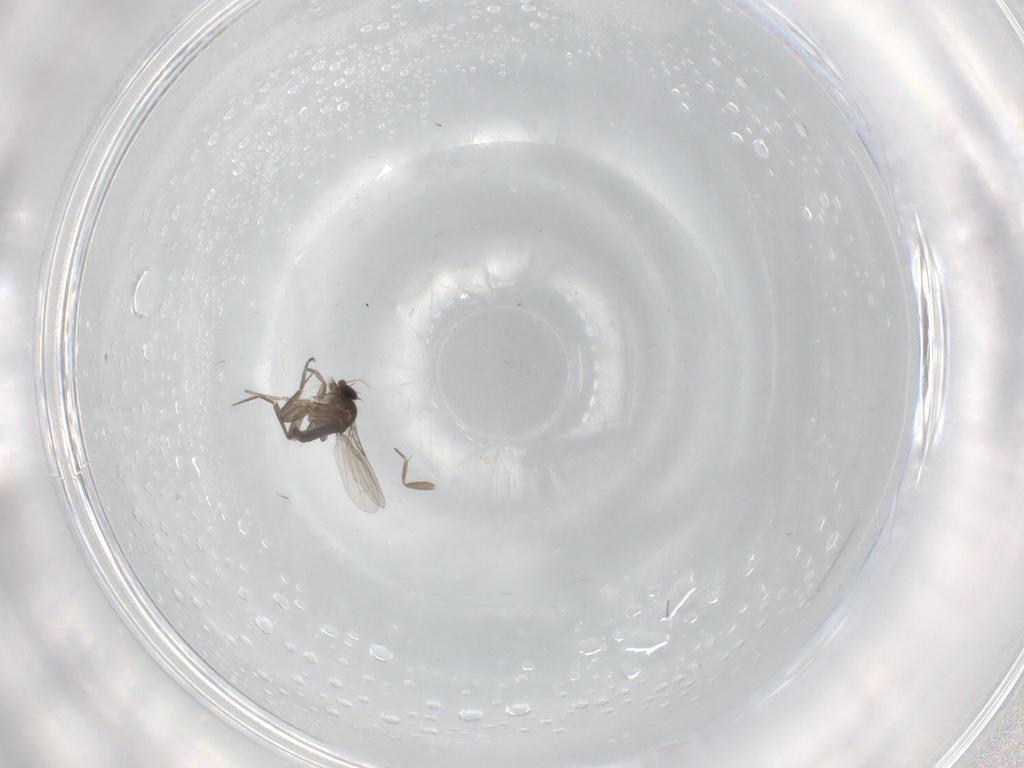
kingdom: Animalia
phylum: Arthropoda
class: Insecta
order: Diptera
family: Phoridae
